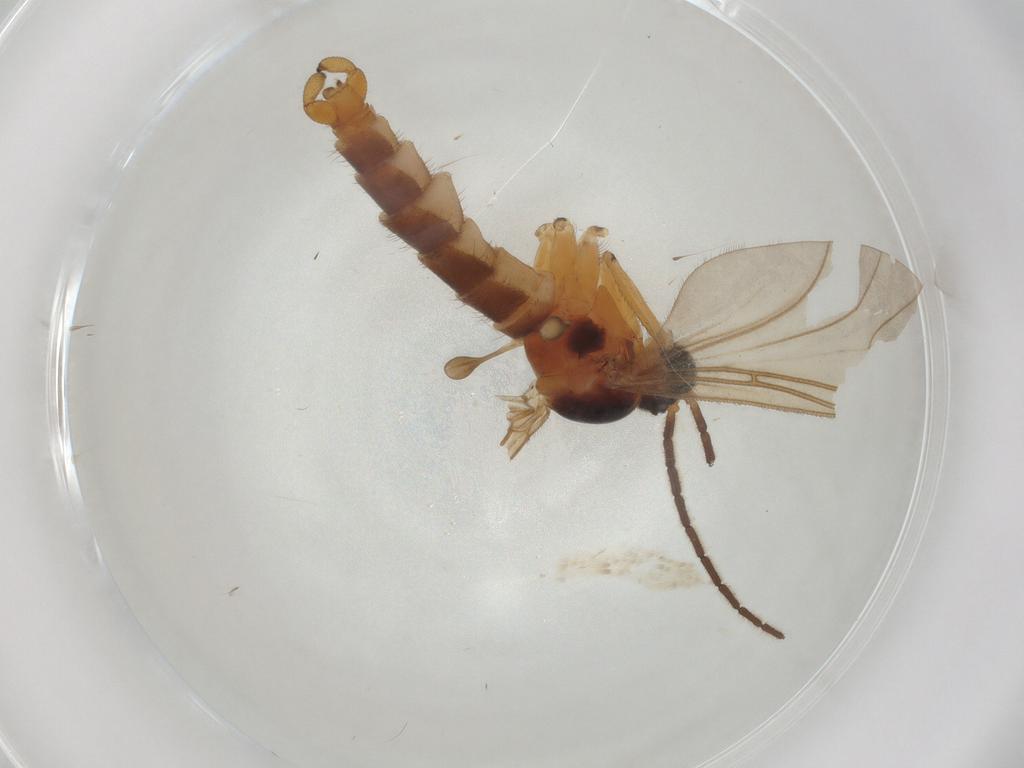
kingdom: Animalia
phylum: Arthropoda
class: Insecta
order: Diptera
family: Sciaridae
